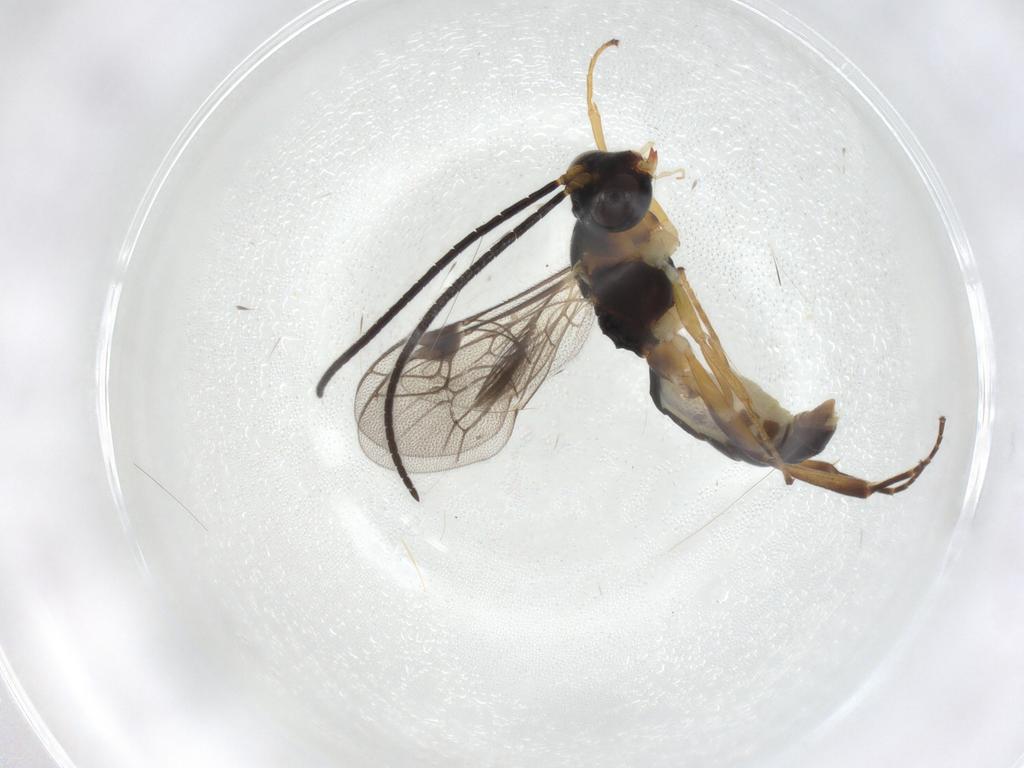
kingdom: Animalia
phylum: Arthropoda
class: Insecta
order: Hymenoptera
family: Ichneumonidae
